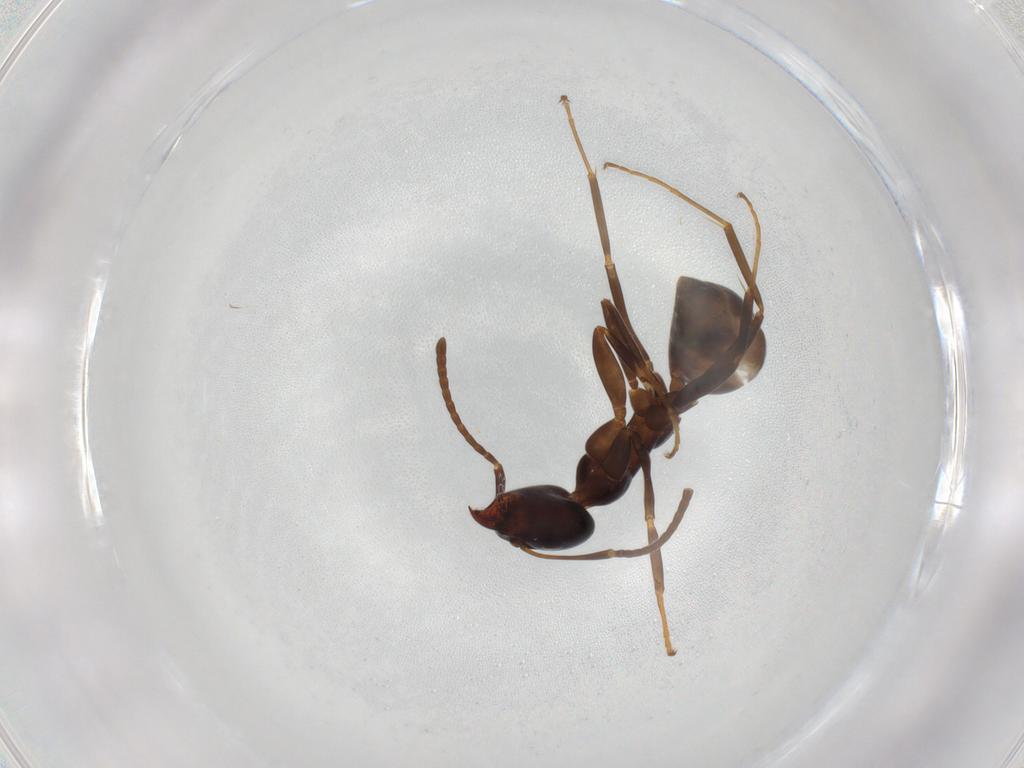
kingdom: Animalia
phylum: Arthropoda
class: Insecta
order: Hymenoptera
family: Formicidae
